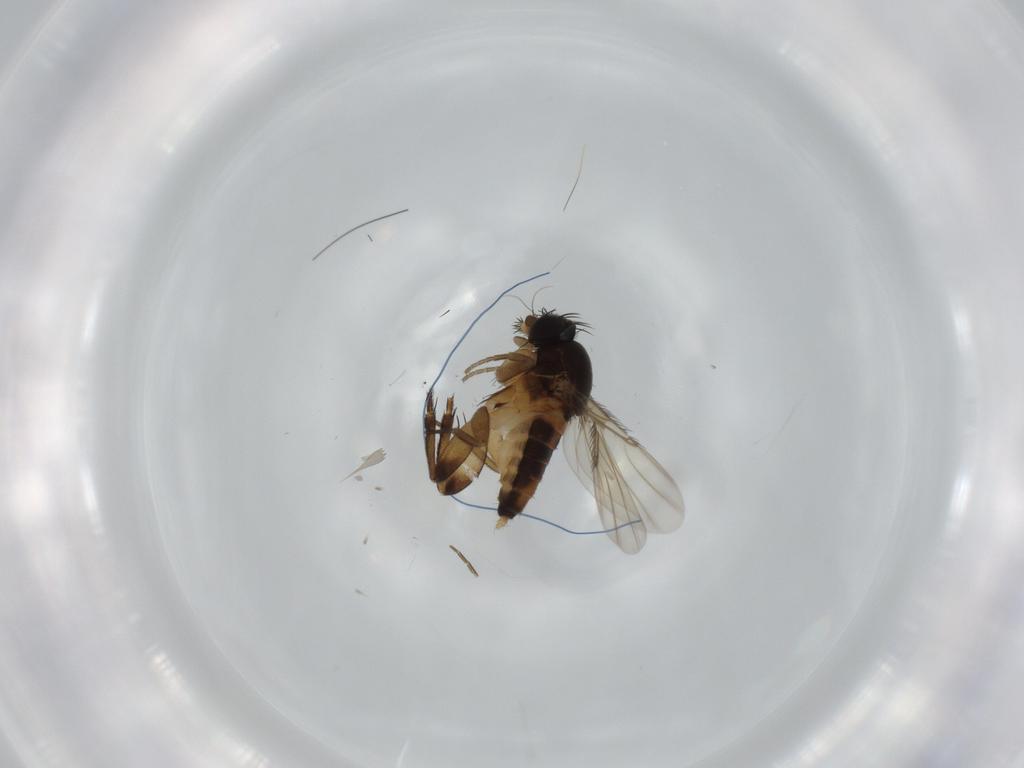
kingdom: Animalia
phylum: Arthropoda
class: Insecta
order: Diptera
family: Phoridae
